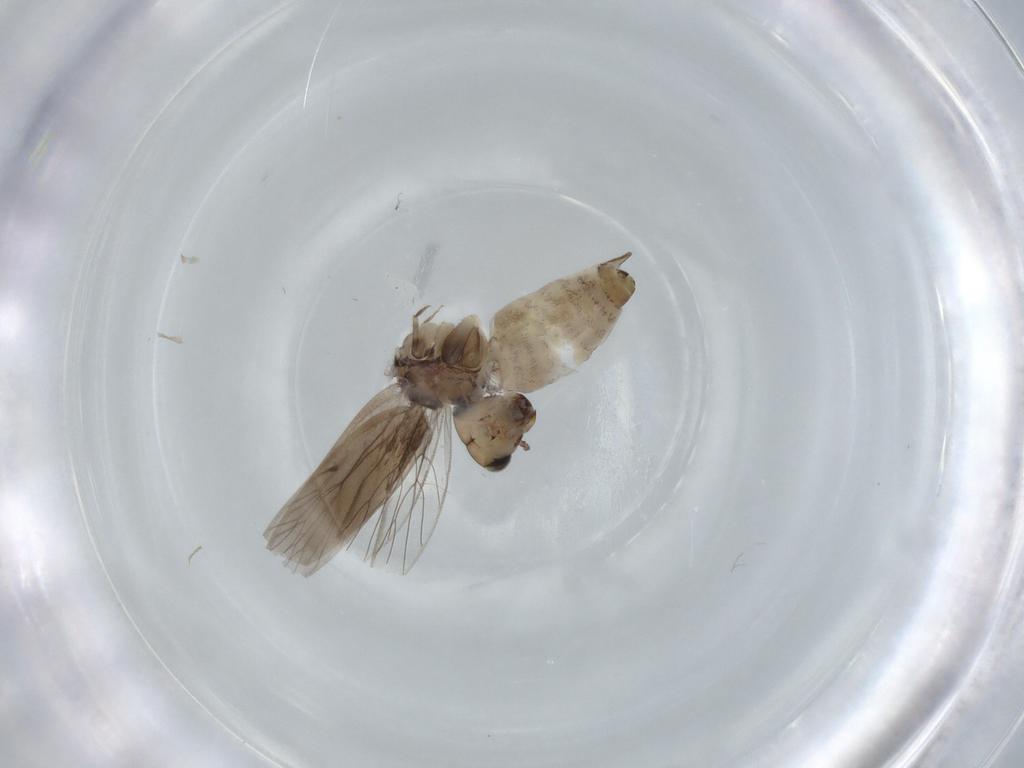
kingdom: Animalia
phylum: Arthropoda
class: Insecta
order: Psocodea
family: Lepidopsocidae
